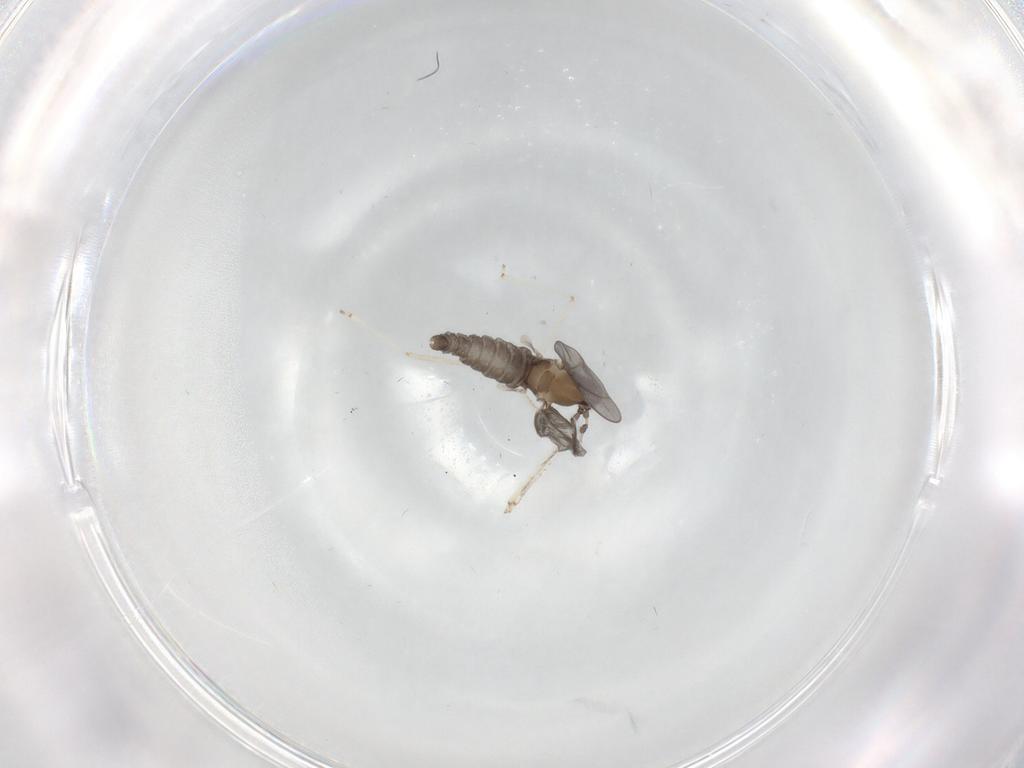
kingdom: Animalia
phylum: Arthropoda
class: Insecta
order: Diptera
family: Cecidomyiidae
